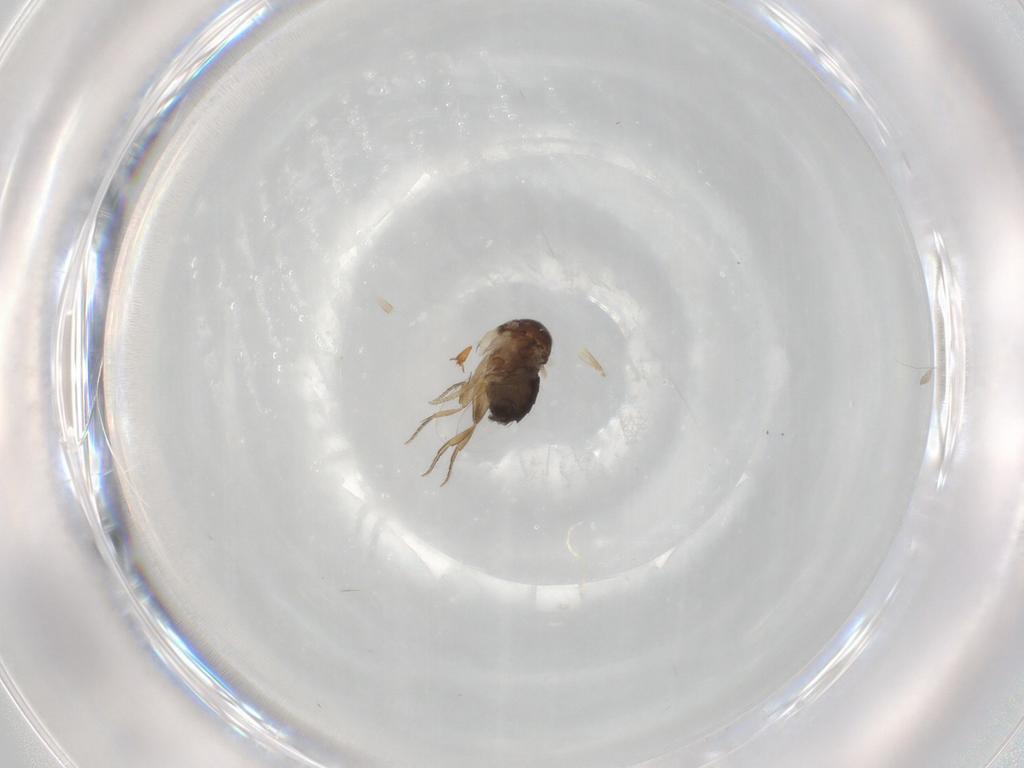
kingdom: Animalia
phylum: Arthropoda
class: Insecta
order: Diptera
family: Phoridae
